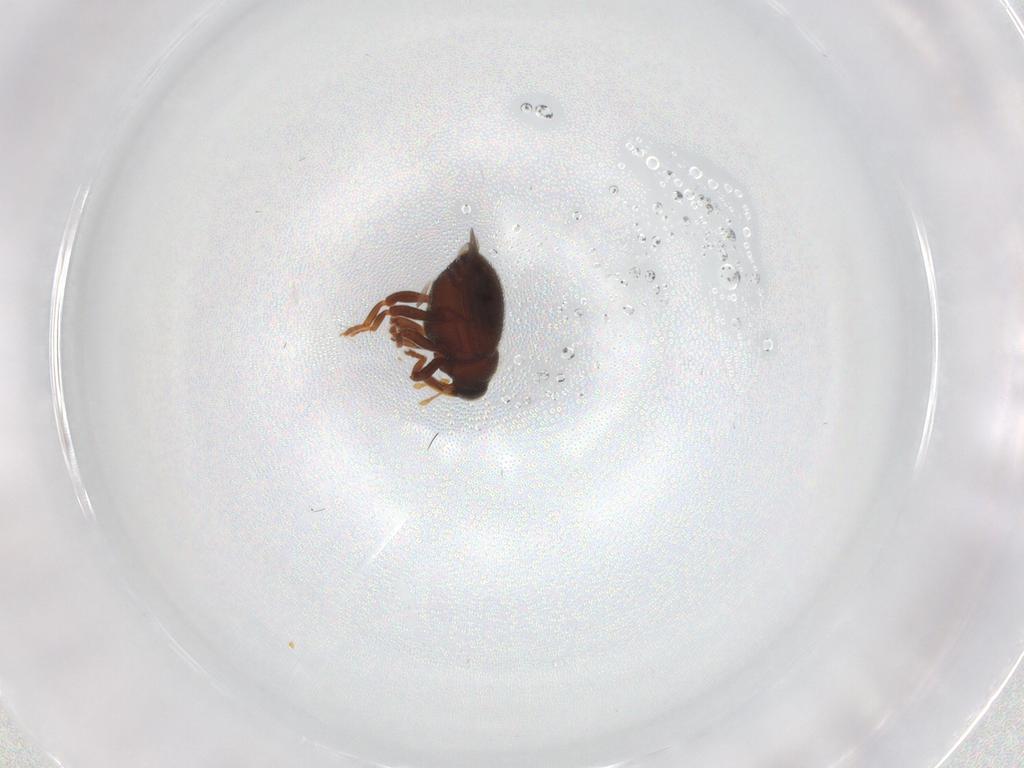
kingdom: Animalia
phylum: Arthropoda
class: Insecta
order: Coleoptera
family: Curculionidae
